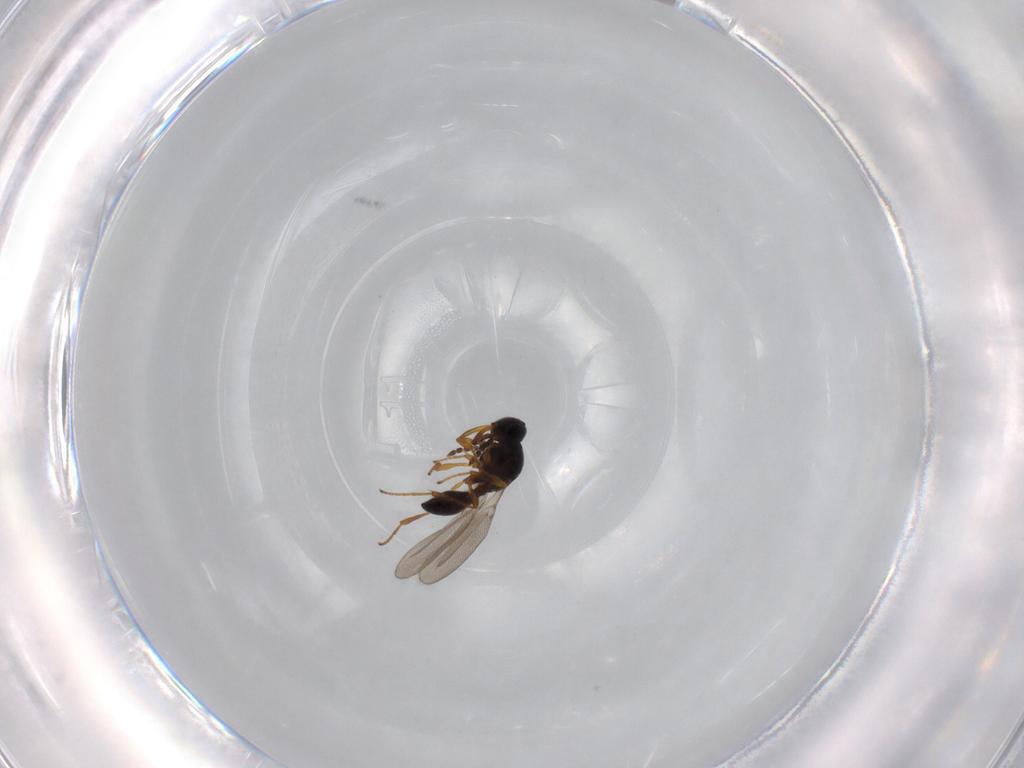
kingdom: Animalia
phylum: Arthropoda
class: Insecta
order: Hymenoptera
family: Platygastridae
